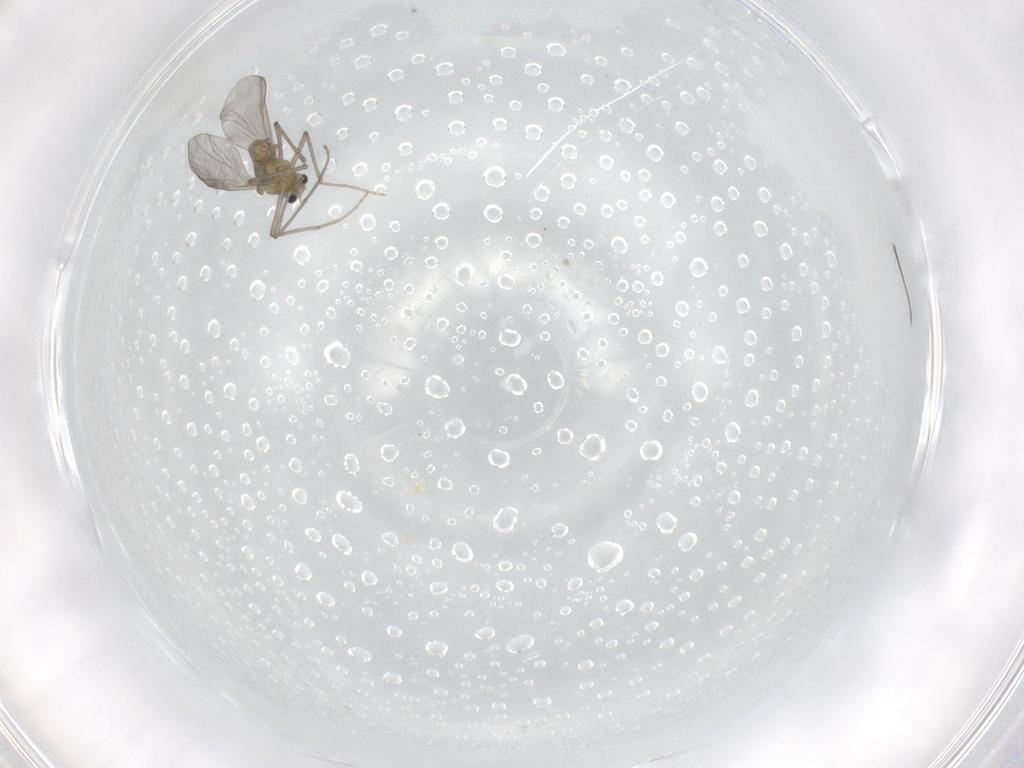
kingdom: Animalia
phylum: Arthropoda
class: Insecta
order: Diptera
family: Chironomidae
